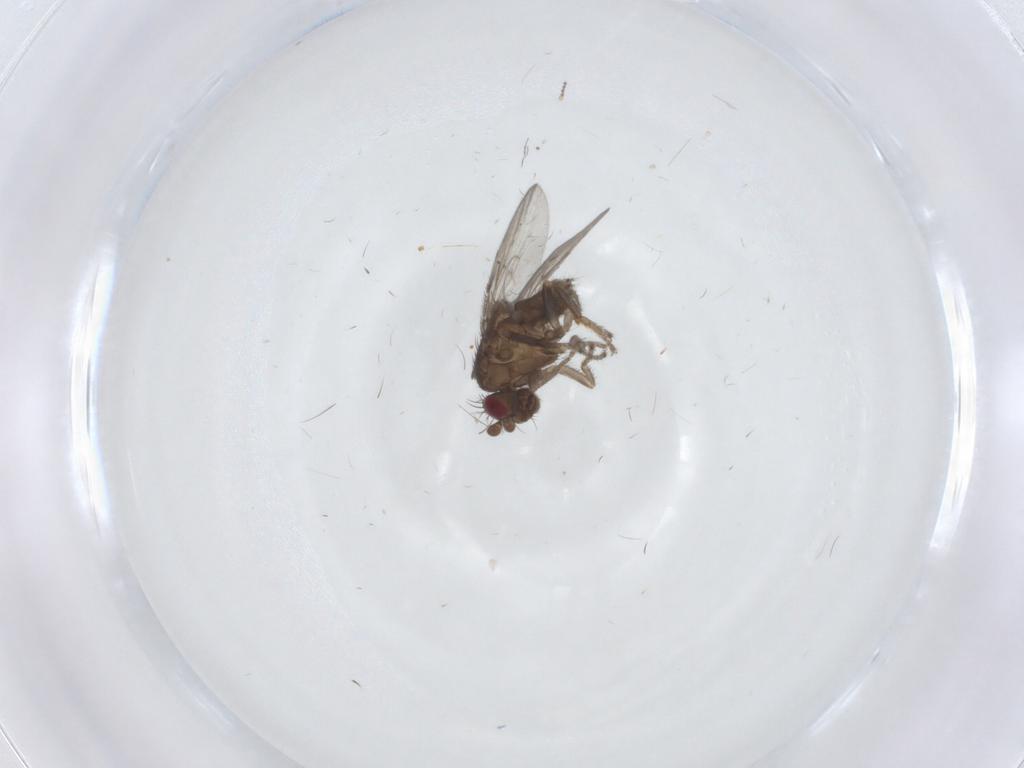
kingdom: Animalia
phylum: Arthropoda
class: Insecta
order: Diptera
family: Sphaeroceridae
